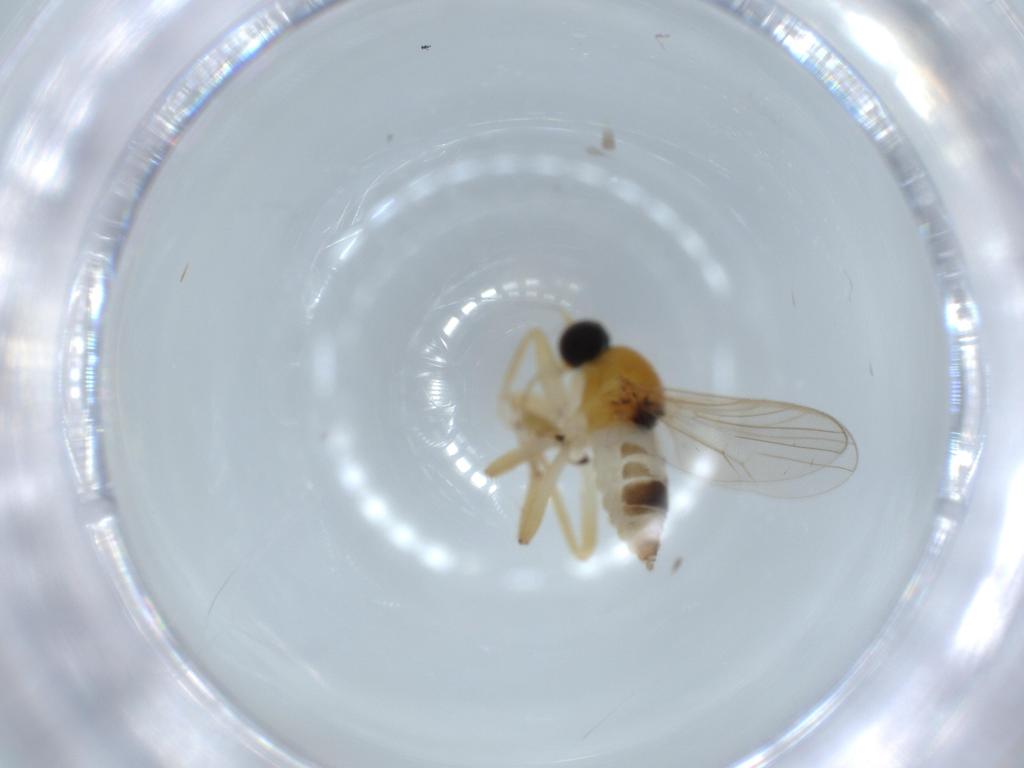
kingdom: Animalia
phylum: Arthropoda
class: Insecta
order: Diptera
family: Hybotidae
